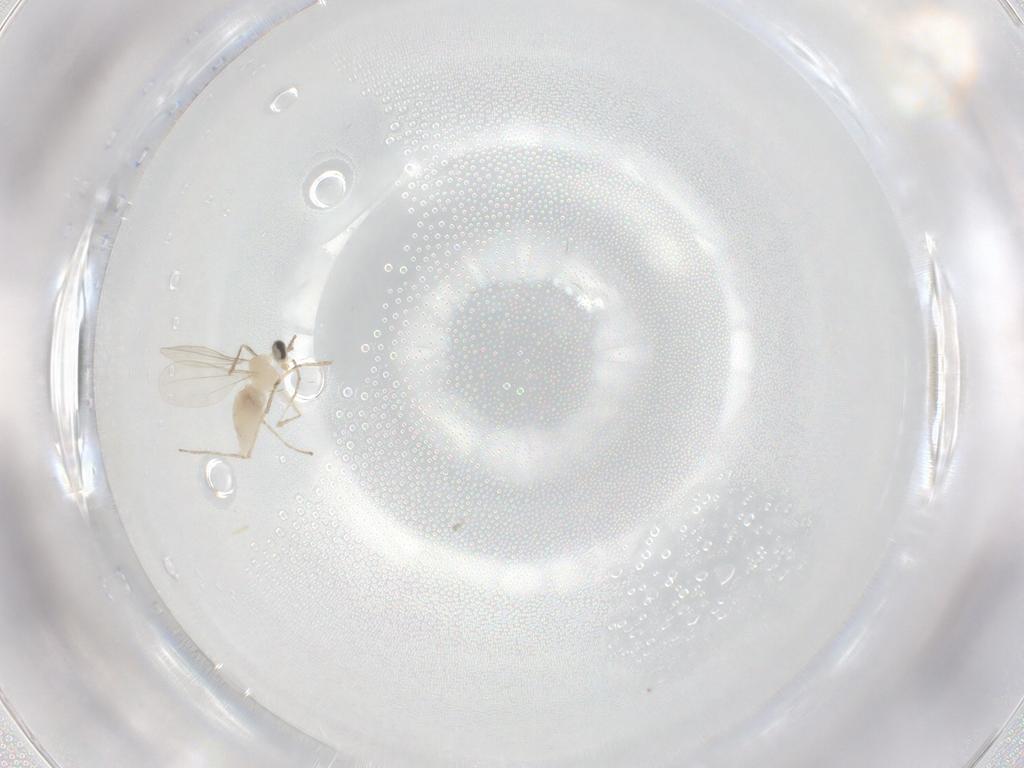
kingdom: Animalia
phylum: Arthropoda
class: Insecta
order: Diptera
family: Cecidomyiidae
